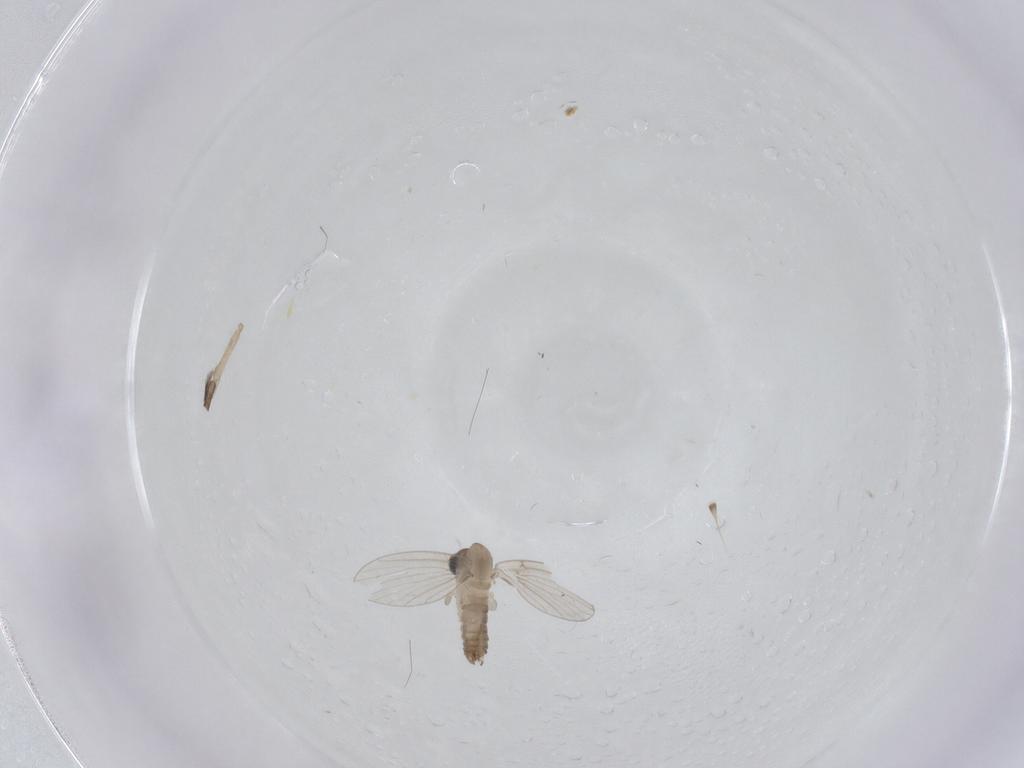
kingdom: Animalia
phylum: Arthropoda
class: Insecta
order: Diptera
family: Psychodidae
